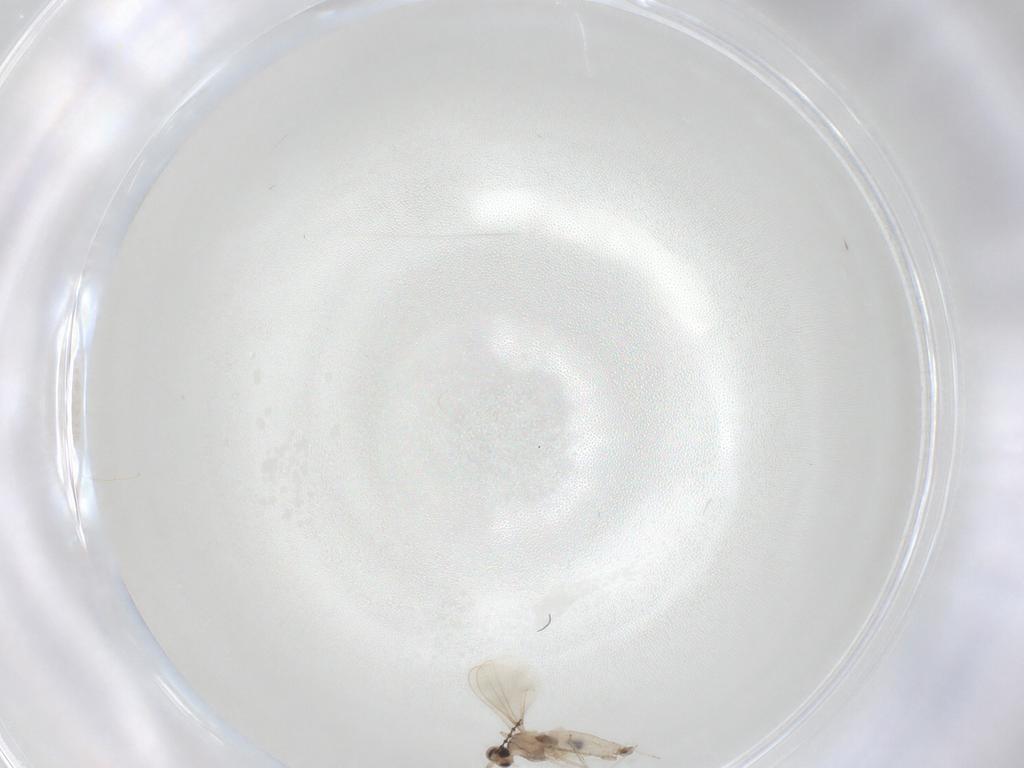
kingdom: Animalia
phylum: Arthropoda
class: Insecta
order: Diptera
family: Cecidomyiidae
